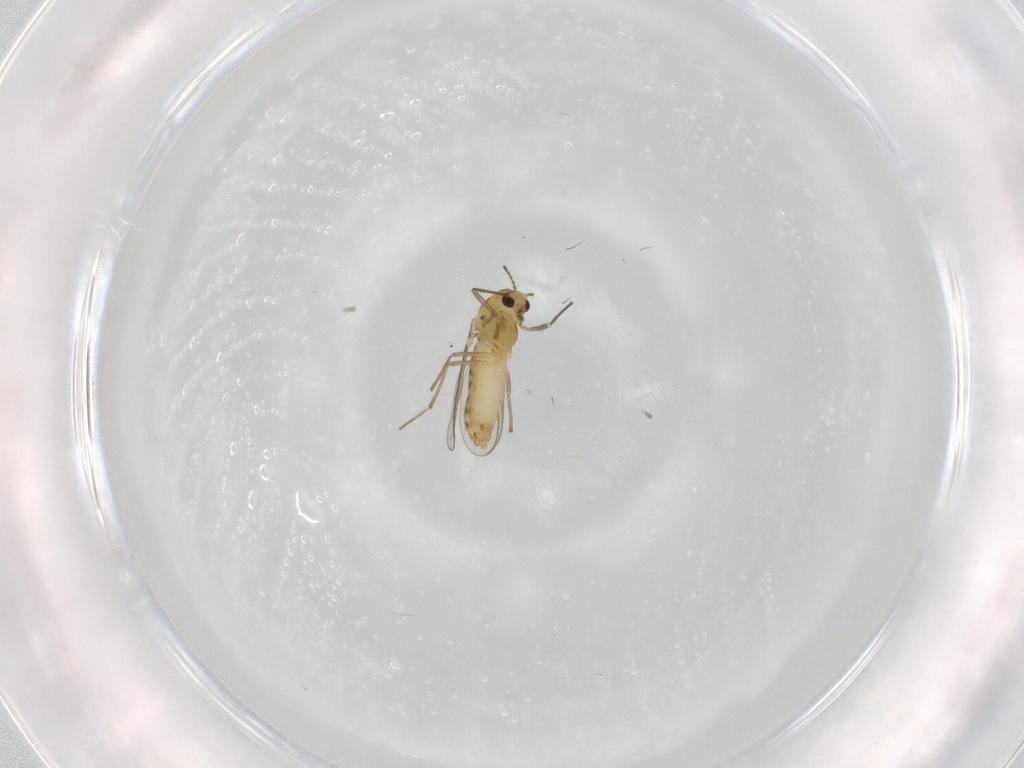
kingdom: Animalia
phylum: Arthropoda
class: Insecta
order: Diptera
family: Chironomidae
